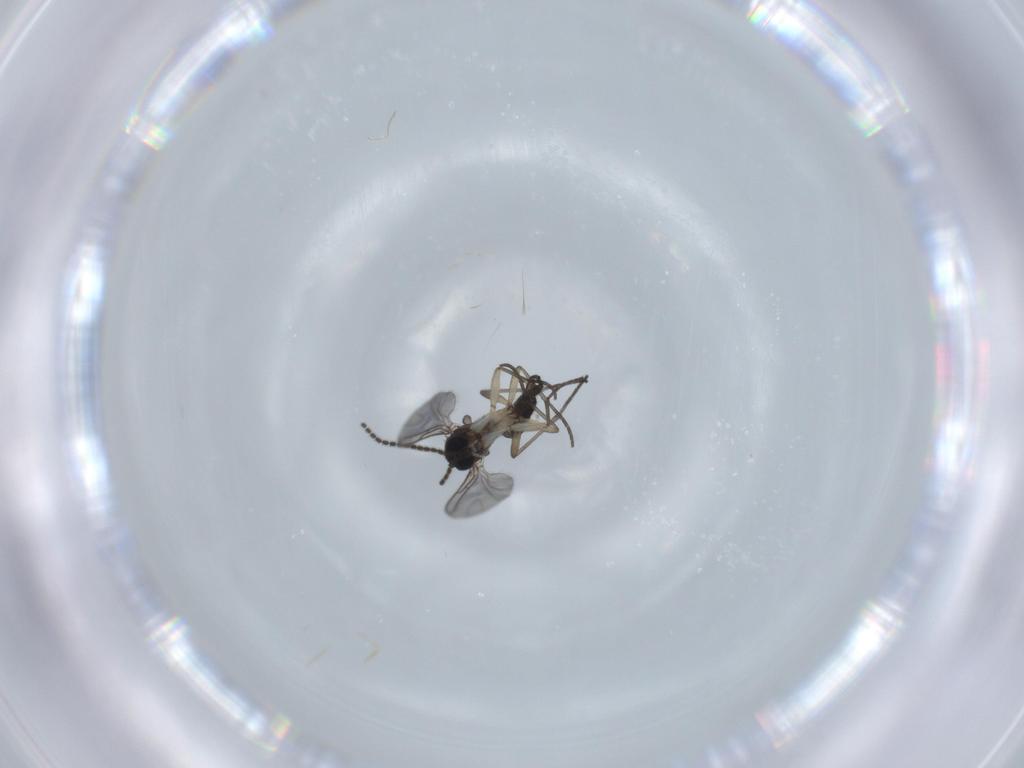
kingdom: Animalia
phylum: Arthropoda
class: Insecta
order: Diptera
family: Sciaridae
